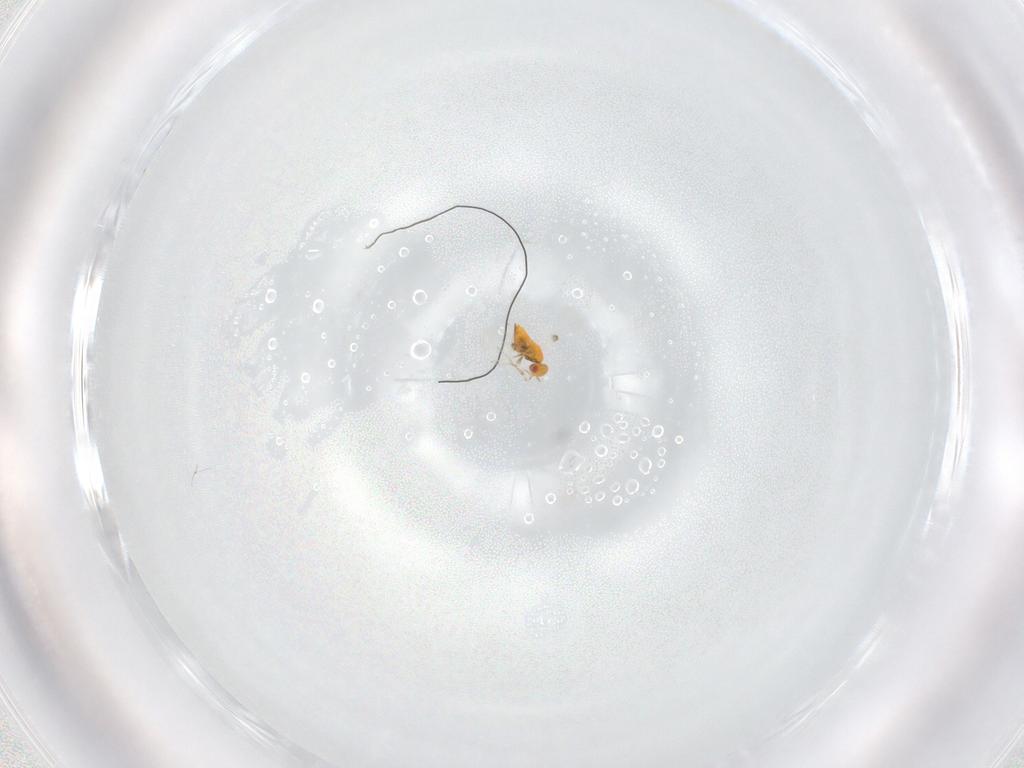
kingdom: Animalia
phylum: Arthropoda
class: Insecta
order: Hymenoptera
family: Trichogrammatidae
